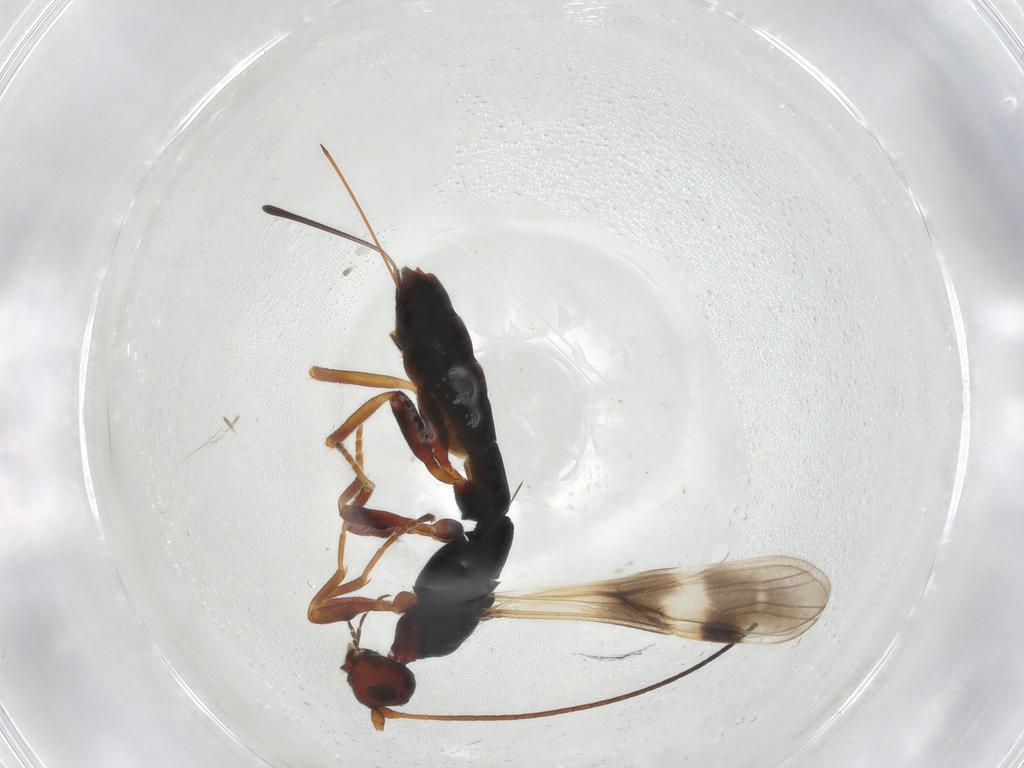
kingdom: Animalia
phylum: Arthropoda
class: Insecta
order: Hymenoptera
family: Braconidae
